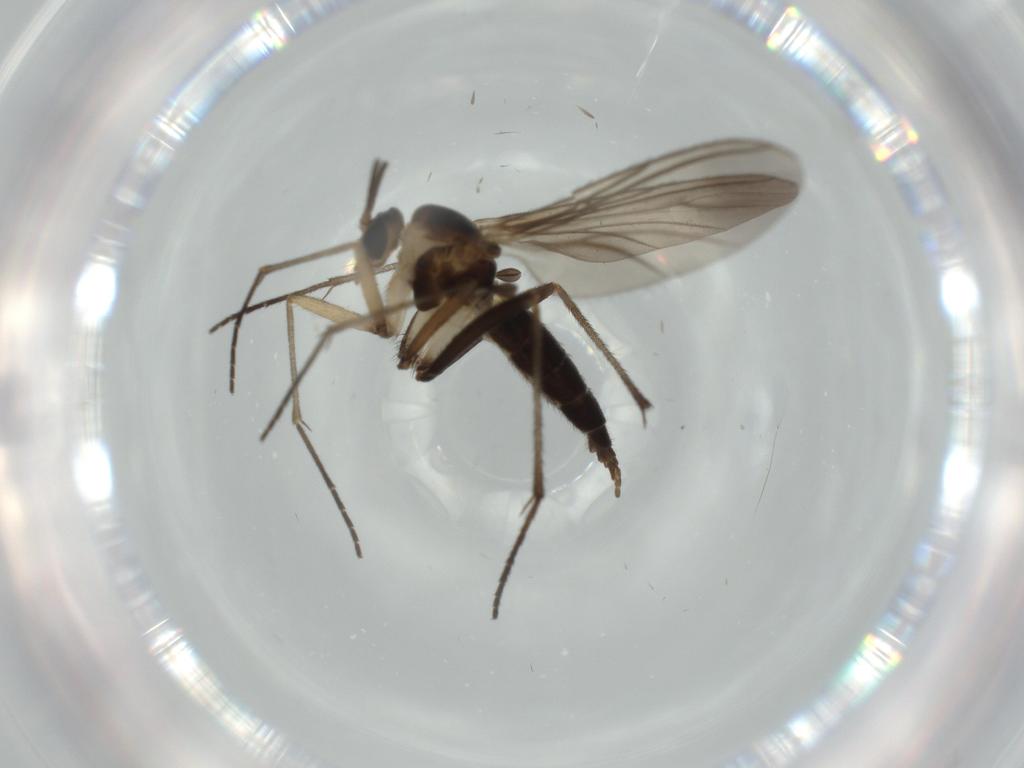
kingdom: Animalia
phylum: Arthropoda
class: Insecta
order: Diptera
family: Sciaridae
